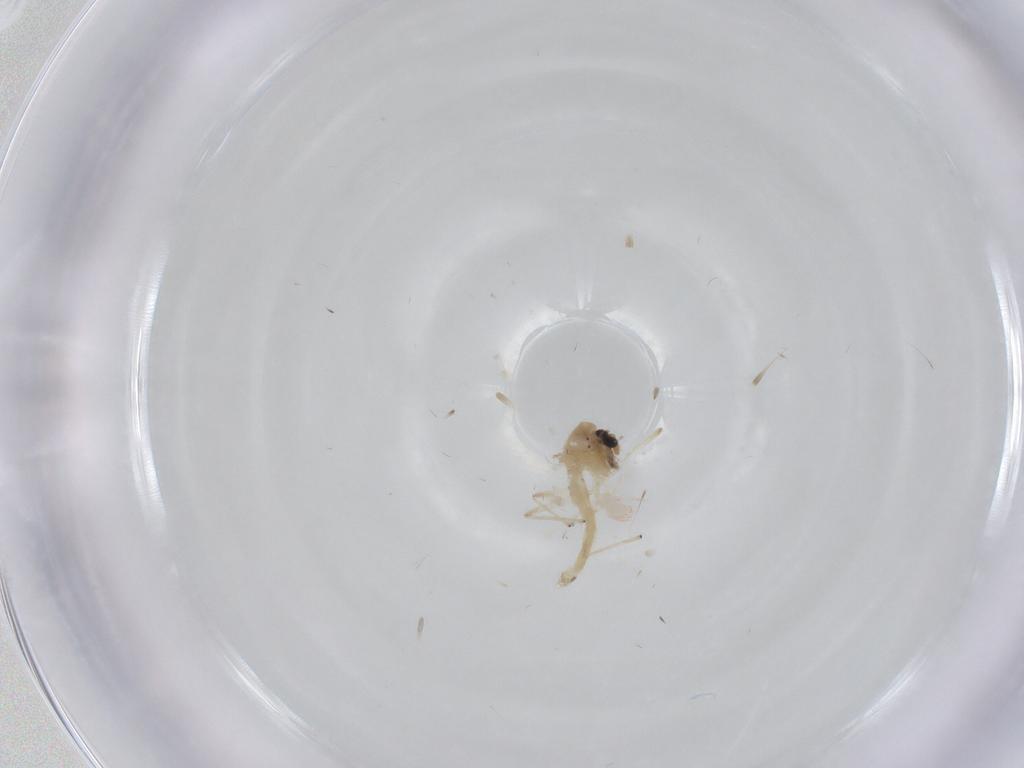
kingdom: Animalia
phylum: Arthropoda
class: Insecta
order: Diptera
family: Chironomidae
